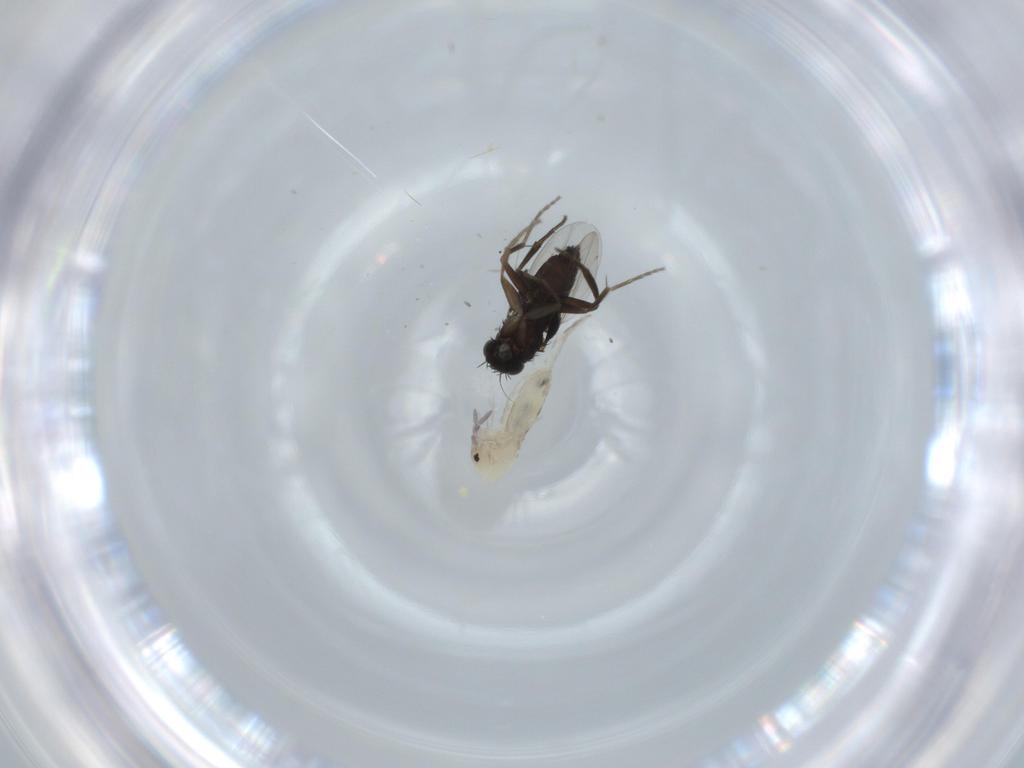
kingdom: Animalia
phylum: Arthropoda
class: Insecta
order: Diptera
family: Phoridae
